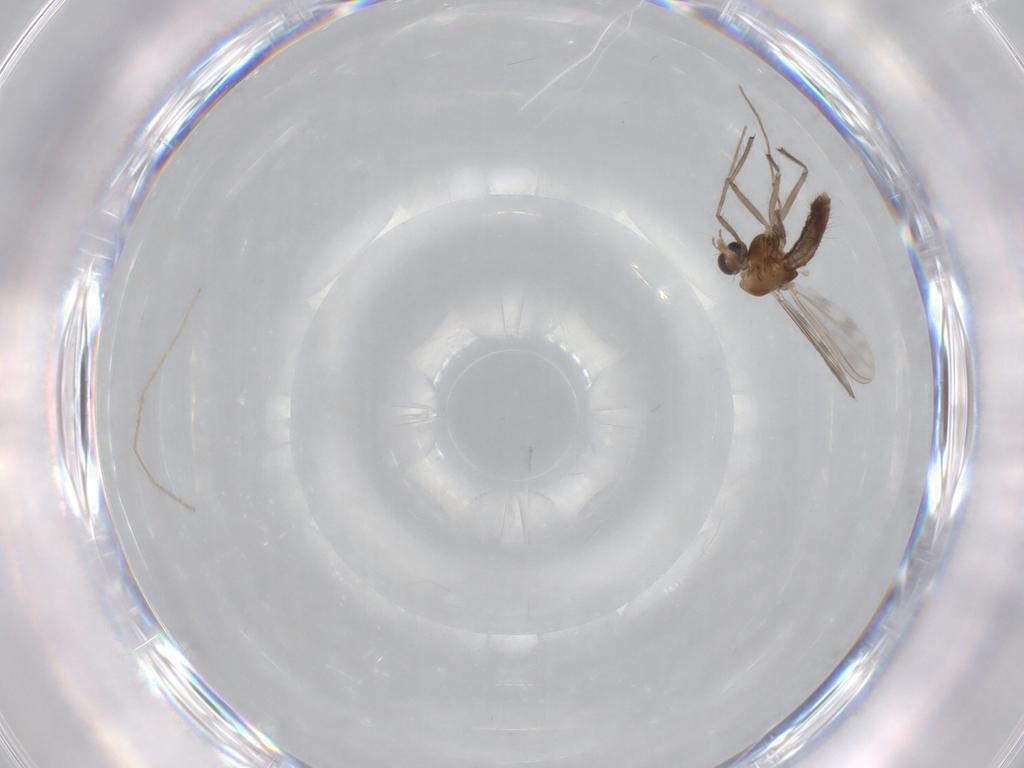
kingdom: Animalia
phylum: Arthropoda
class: Insecta
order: Diptera
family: Chironomidae
